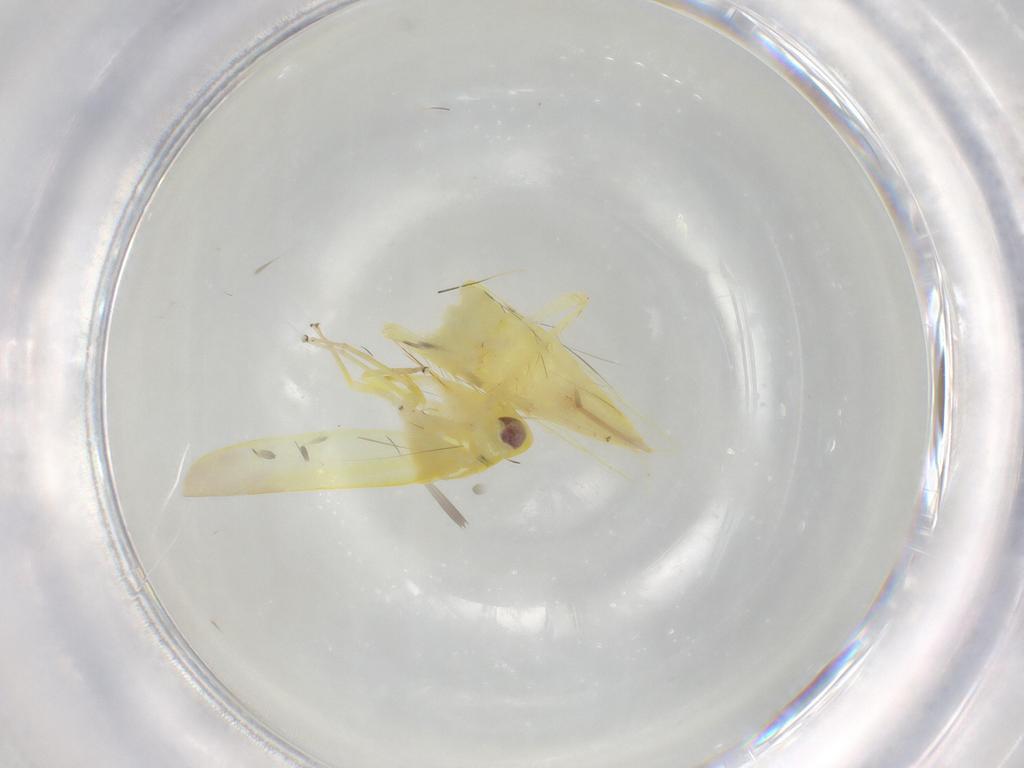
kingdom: Animalia
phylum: Arthropoda
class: Insecta
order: Hemiptera
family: Cicadellidae
